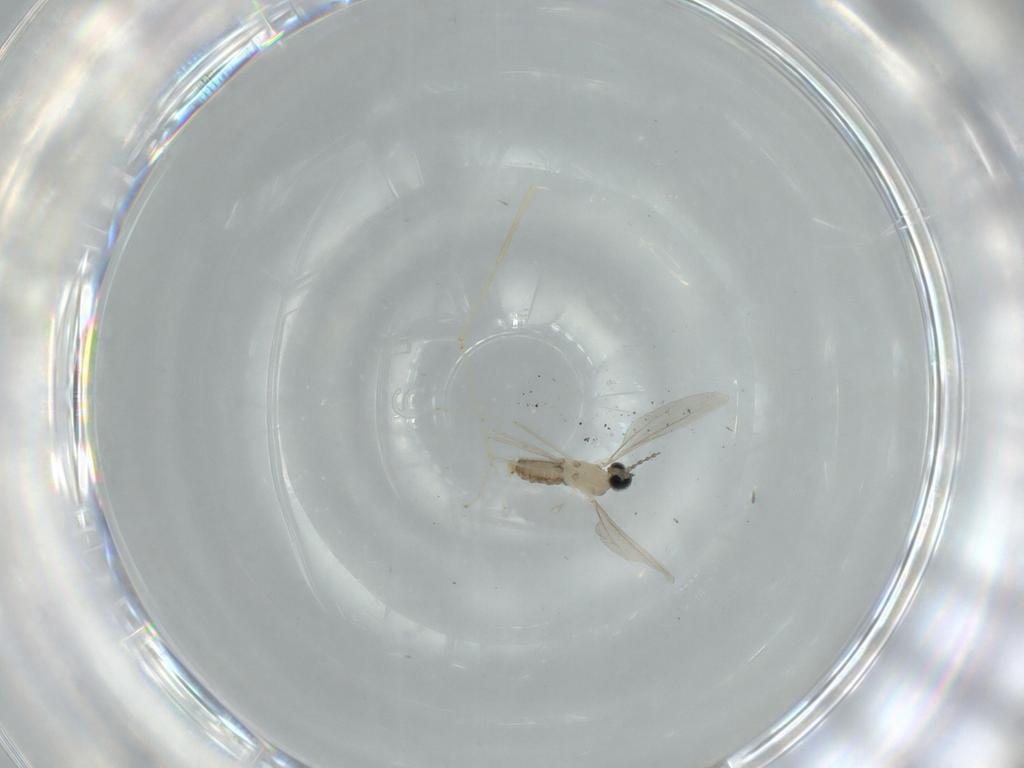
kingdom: Animalia
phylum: Arthropoda
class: Insecta
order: Diptera
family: Cecidomyiidae
